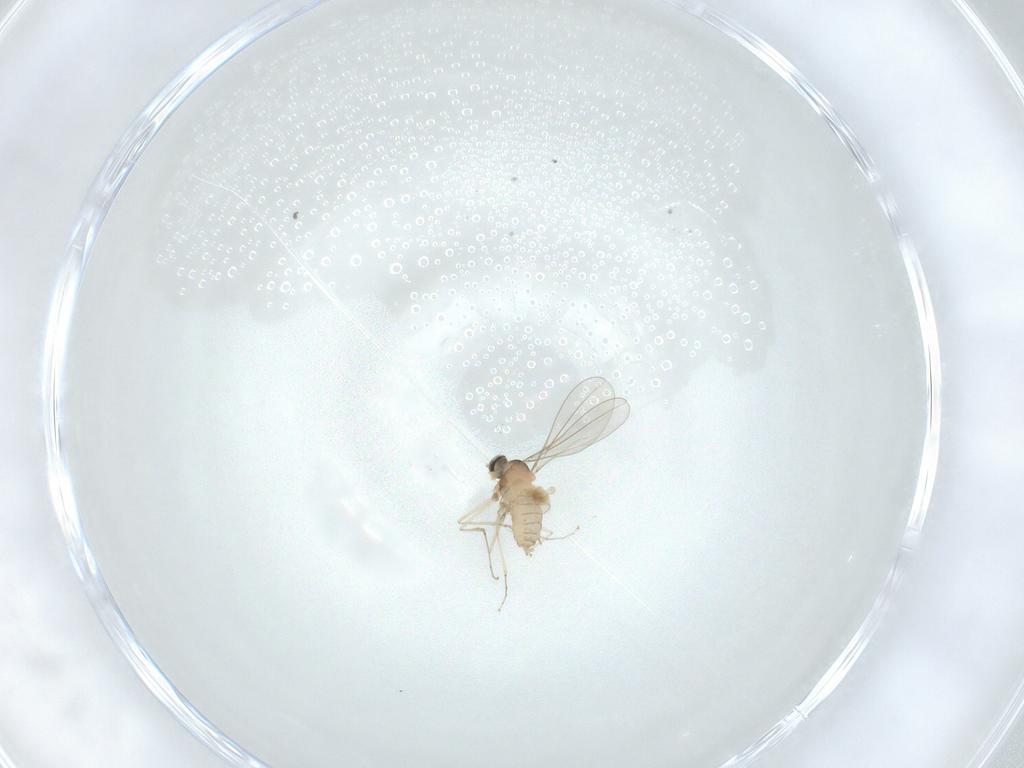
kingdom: Animalia
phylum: Arthropoda
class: Insecta
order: Diptera
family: Cecidomyiidae
